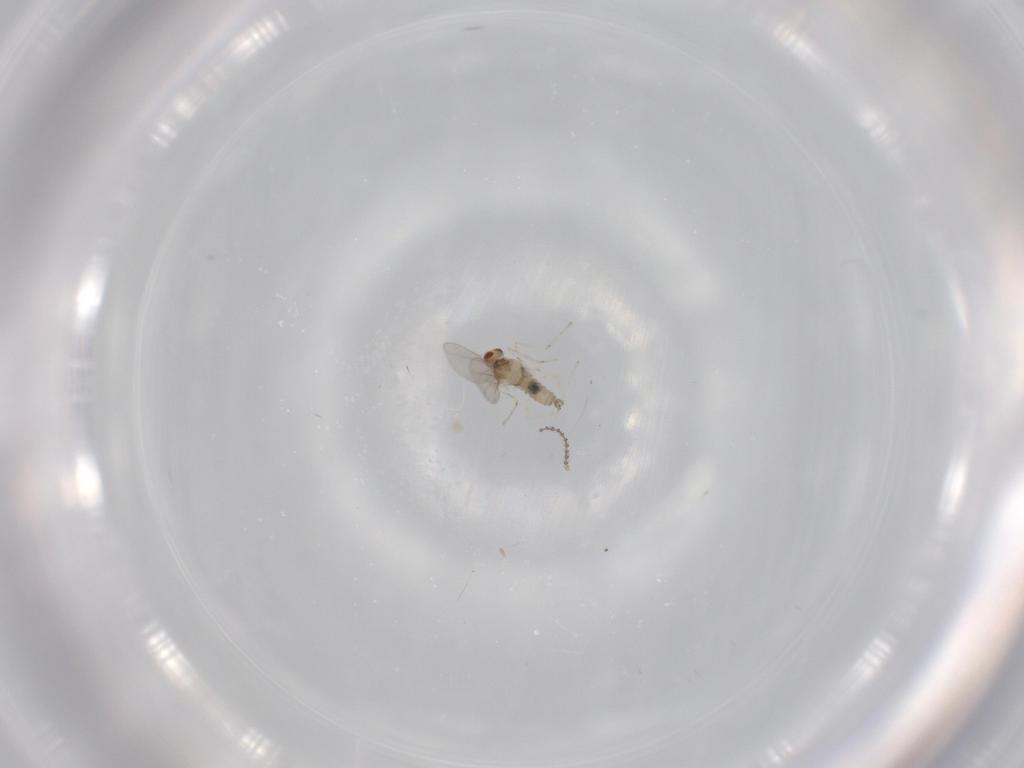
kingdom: Animalia
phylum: Arthropoda
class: Insecta
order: Diptera
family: Cecidomyiidae
